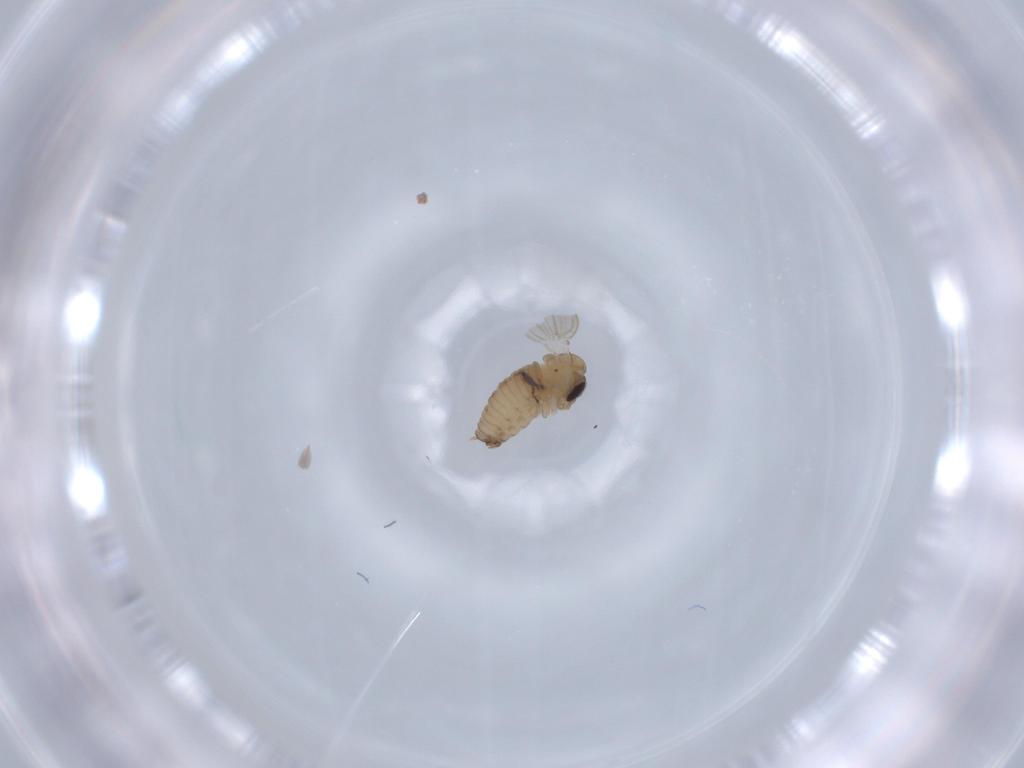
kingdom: Animalia
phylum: Arthropoda
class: Insecta
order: Diptera
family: Psychodidae
